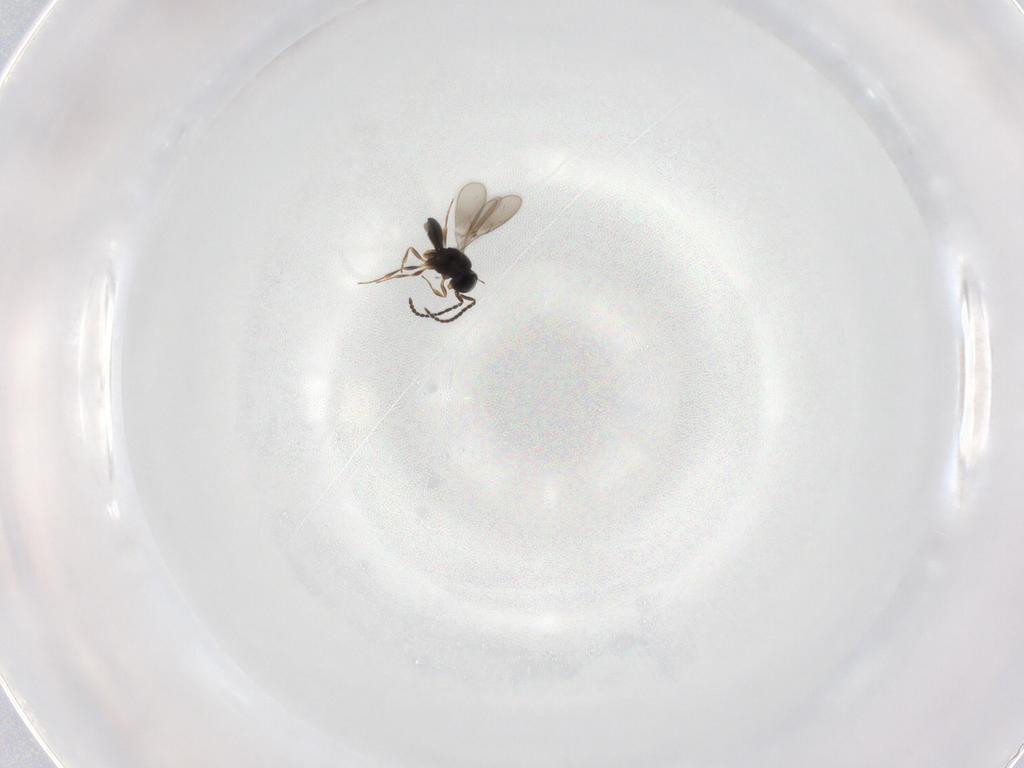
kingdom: Animalia
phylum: Arthropoda
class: Insecta
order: Hymenoptera
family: Scelionidae
